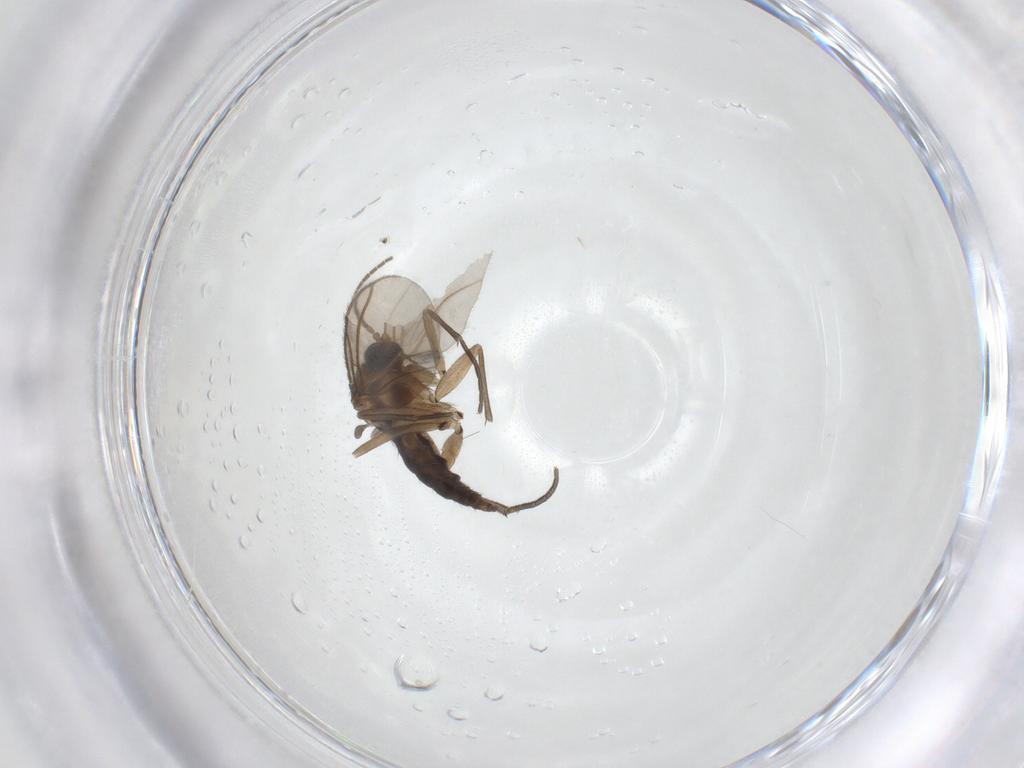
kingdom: Animalia
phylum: Arthropoda
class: Insecta
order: Diptera
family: Sciaridae
